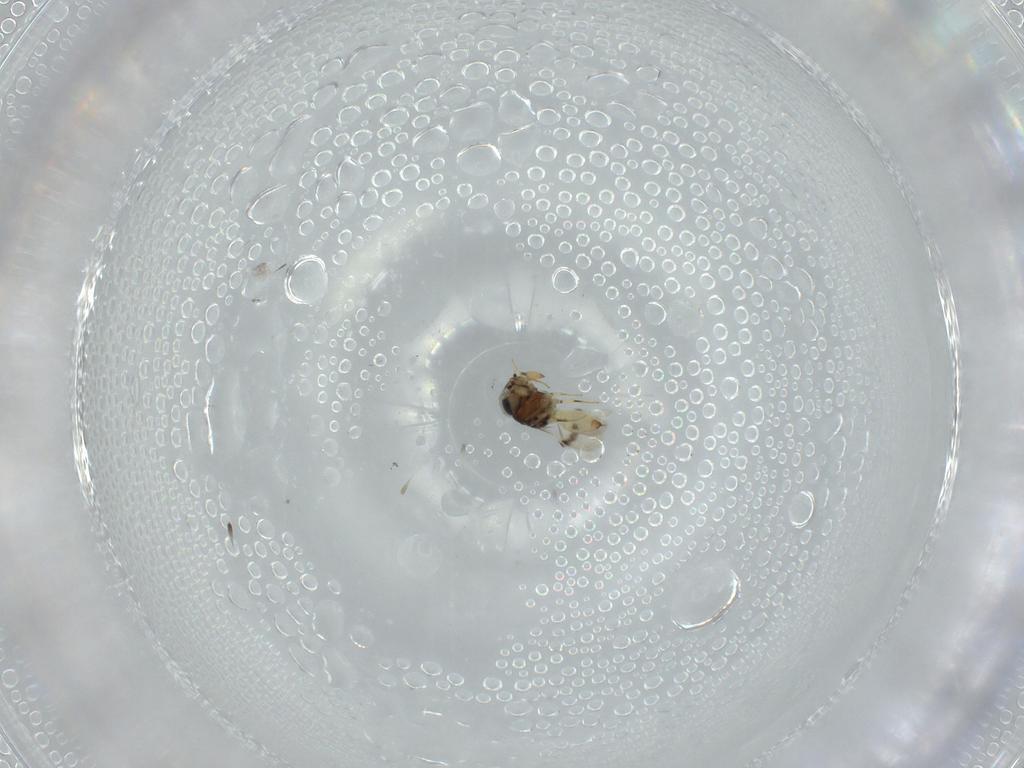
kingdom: Animalia
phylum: Arthropoda
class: Insecta
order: Hymenoptera
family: Scelionidae
